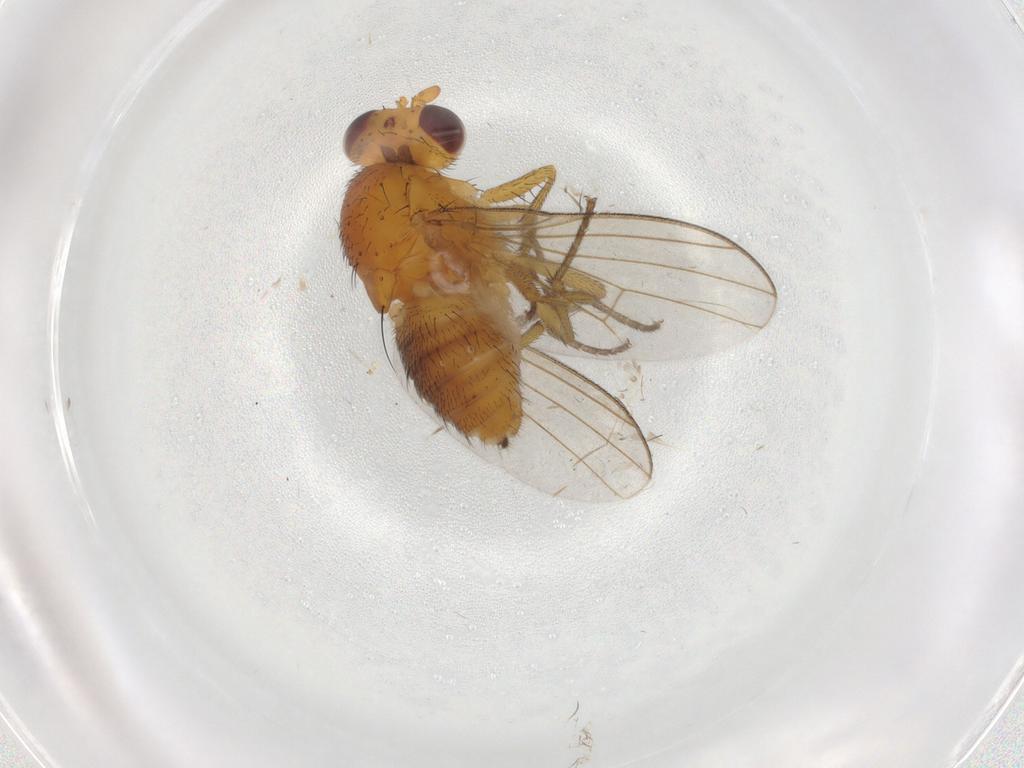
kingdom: Animalia
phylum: Arthropoda
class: Insecta
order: Diptera
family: Lauxaniidae
